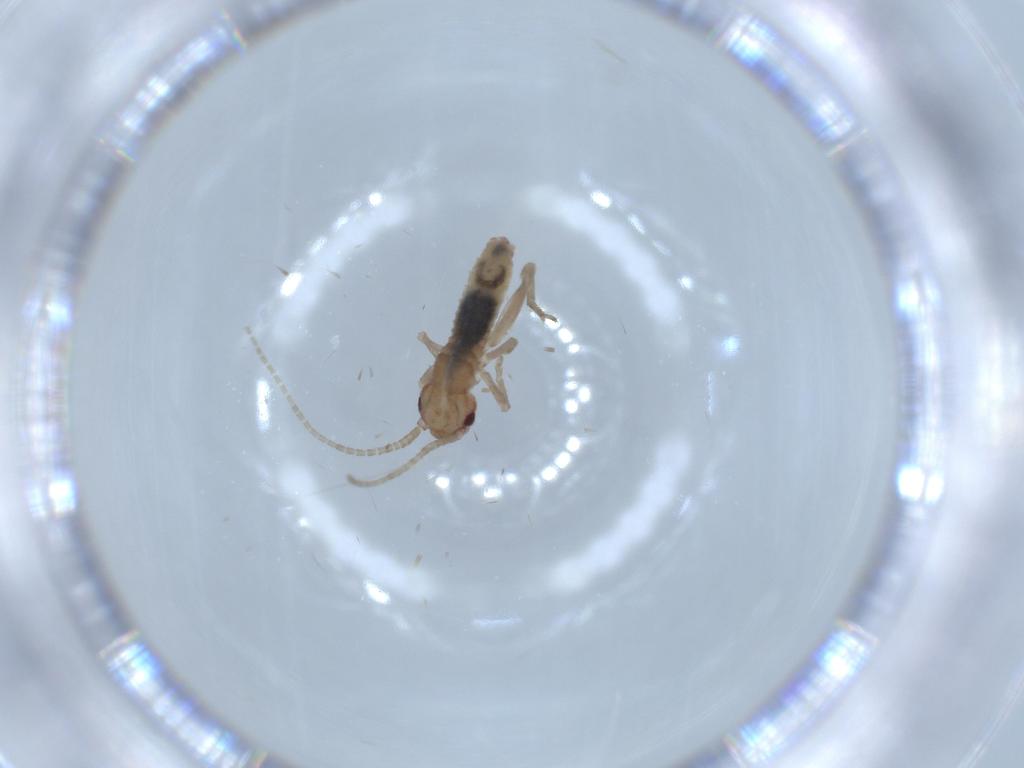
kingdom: Animalia
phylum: Arthropoda
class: Insecta
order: Orthoptera
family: Mogoplistidae
